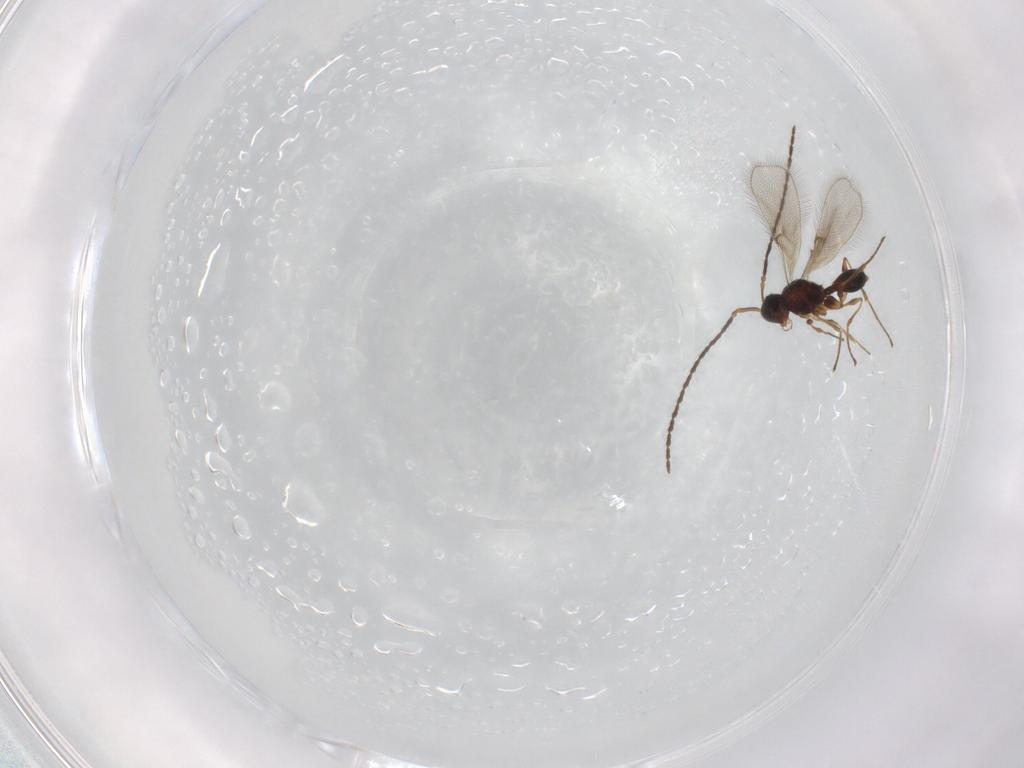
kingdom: Animalia
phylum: Arthropoda
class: Insecta
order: Hymenoptera
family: Diapriidae
